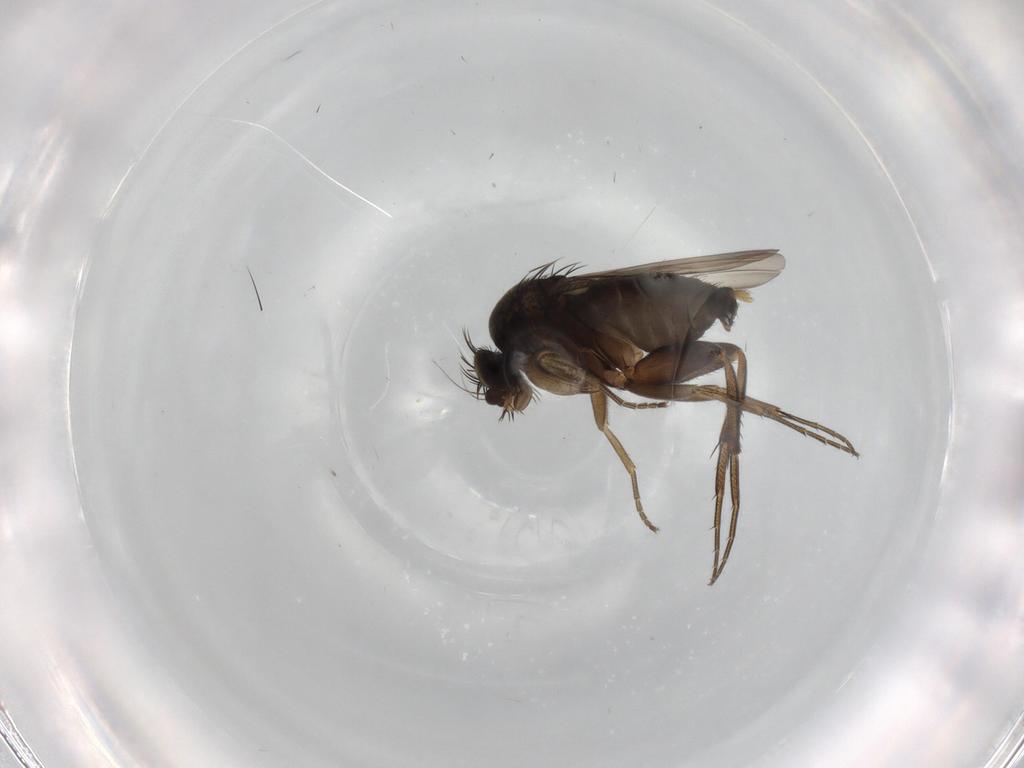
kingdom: Animalia
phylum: Arthropoda
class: Insecta
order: Diptera
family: Phoridae
